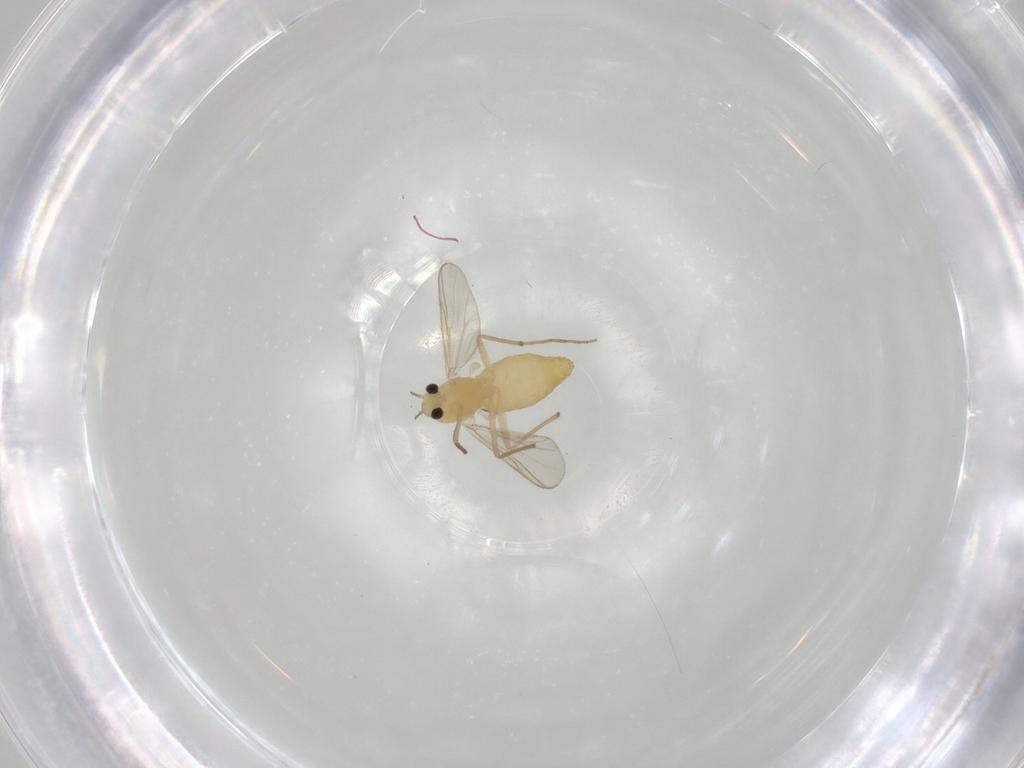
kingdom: Animalia
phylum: Arthropoda
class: Insecta
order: Diptera
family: Chironomidae
